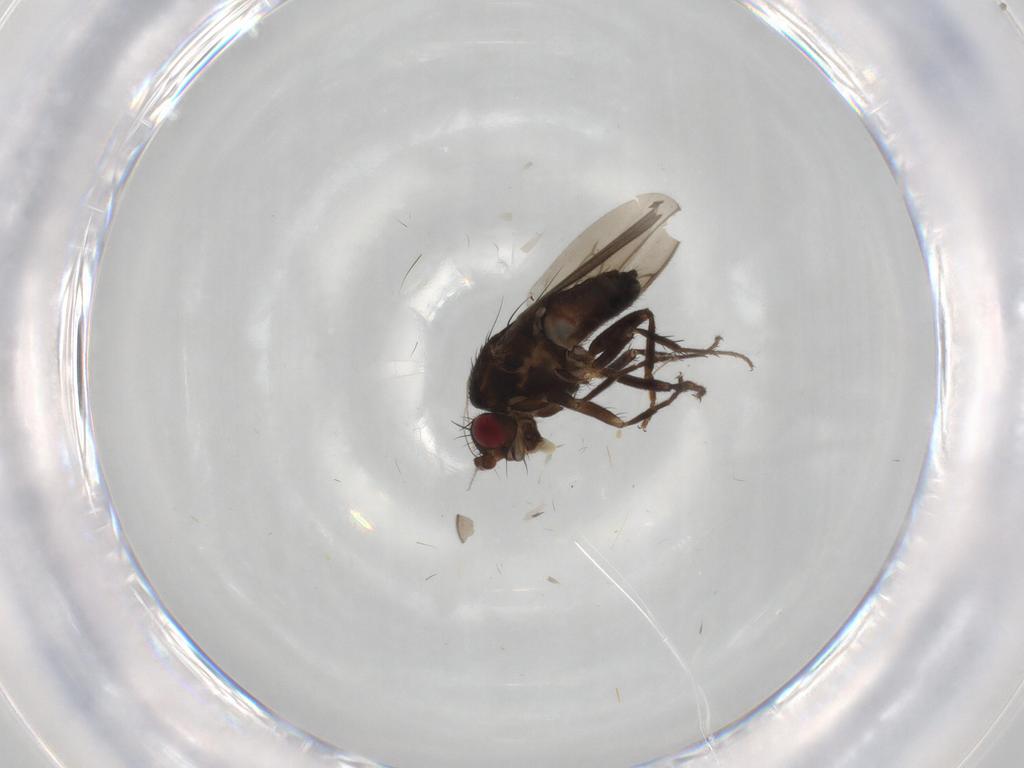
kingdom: Animalia
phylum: Arthropoda
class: Insecta
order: Diptera
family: Sphaeroceridae
